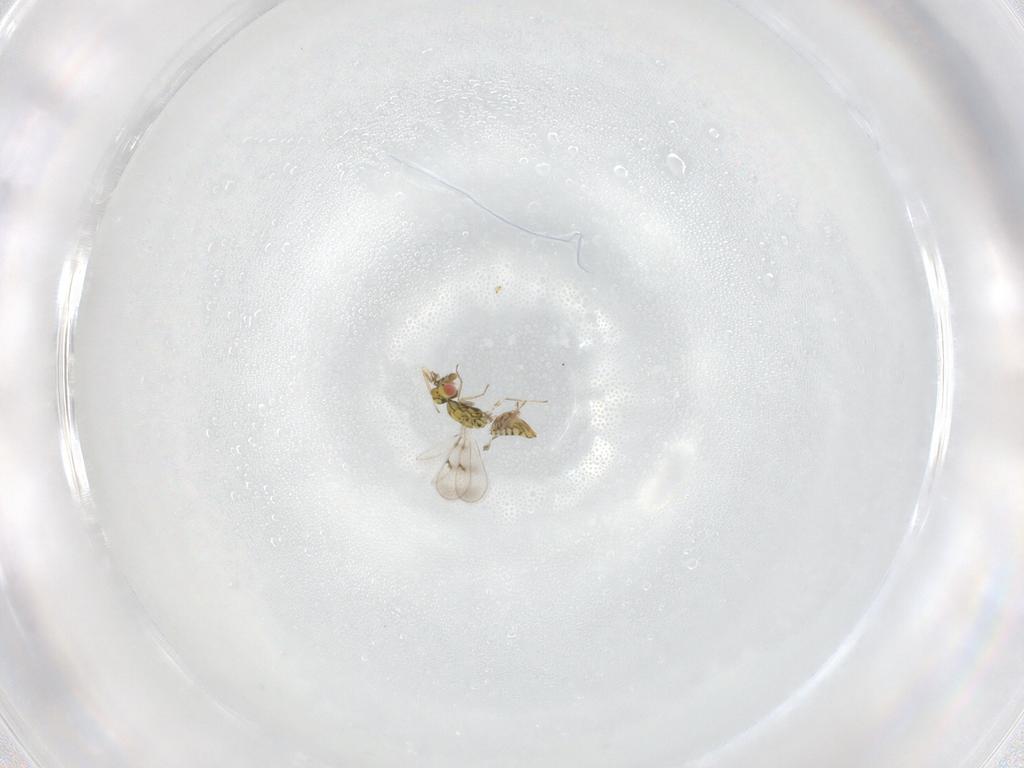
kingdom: Animalia
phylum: Arthropoda
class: Insecta
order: Hymenoptera
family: Eulophidae
